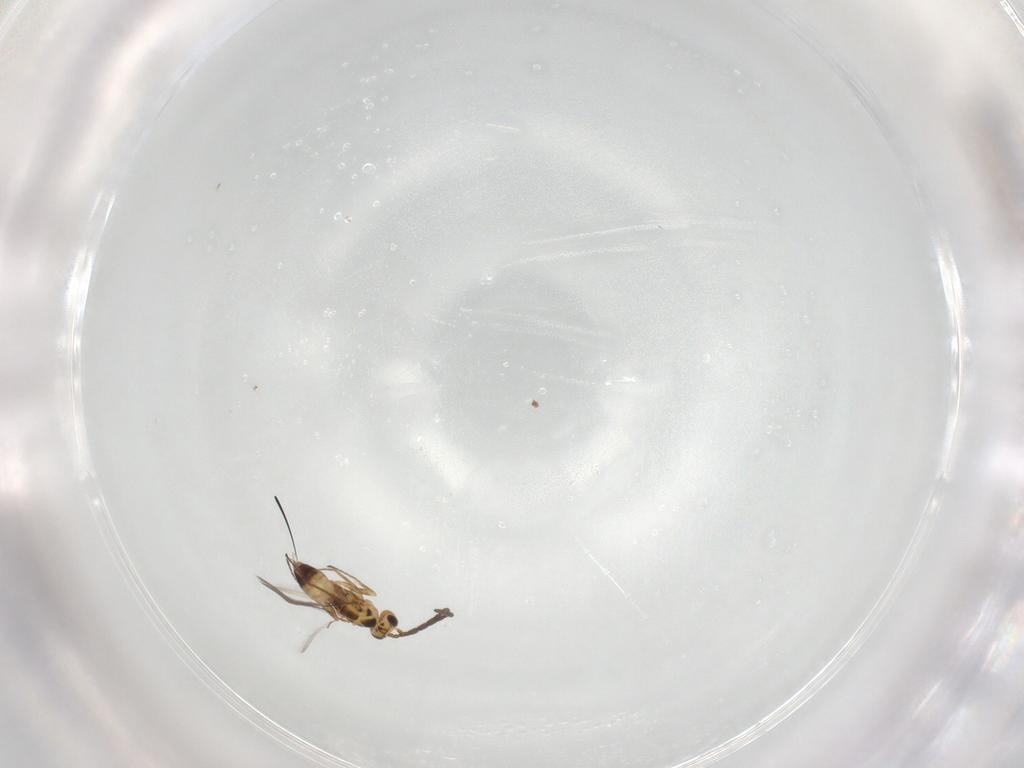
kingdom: Animalia
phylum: Arthropoda
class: Insecta
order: Hymenoptera
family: Mymaridae
